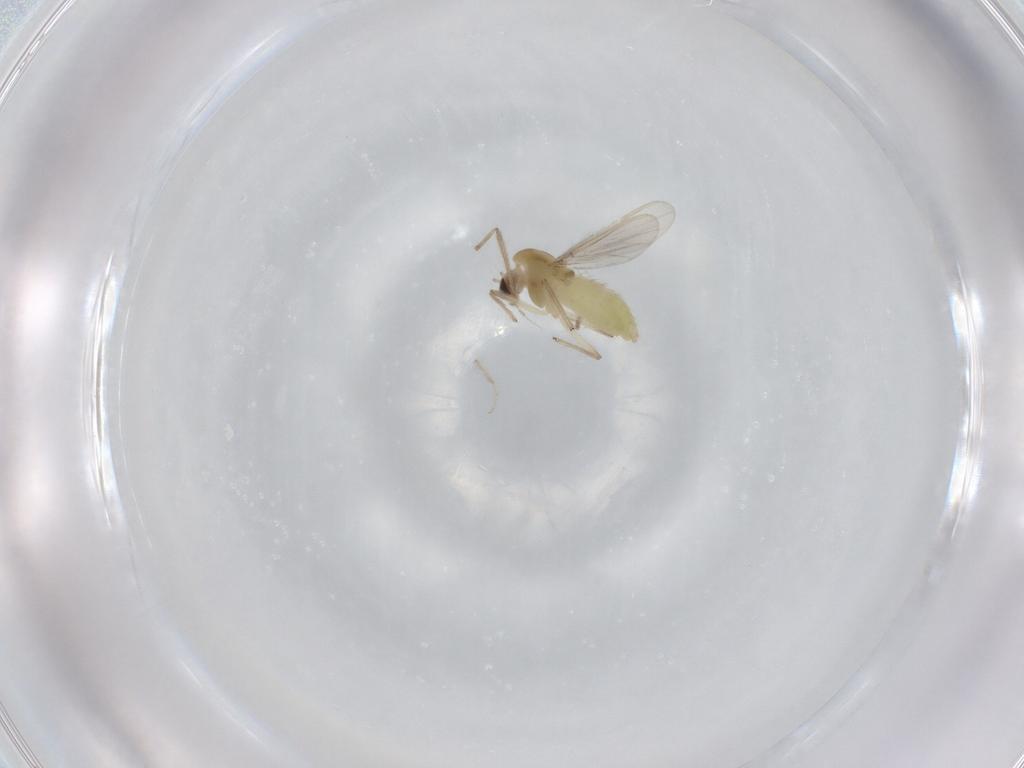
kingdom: Animalia
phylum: Arthropoda
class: Insecta
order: Diptera
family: Chironomidae
